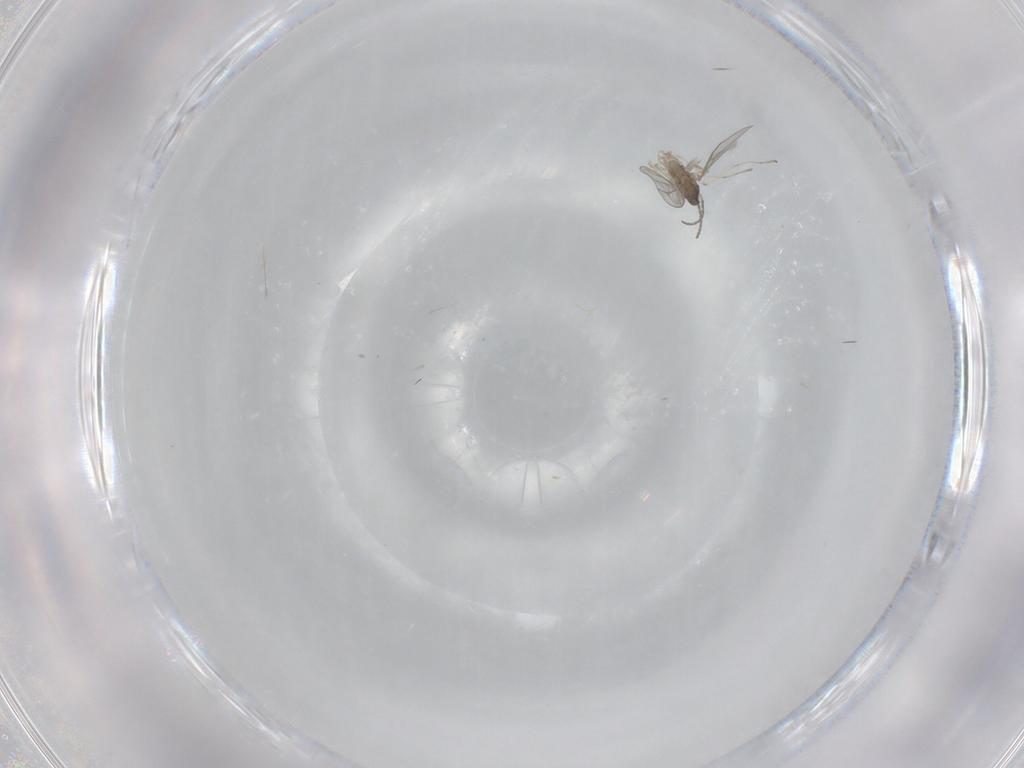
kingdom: Animalia
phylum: Arthropoda
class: Insecta
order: Diptera
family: Cecidomyiidae
